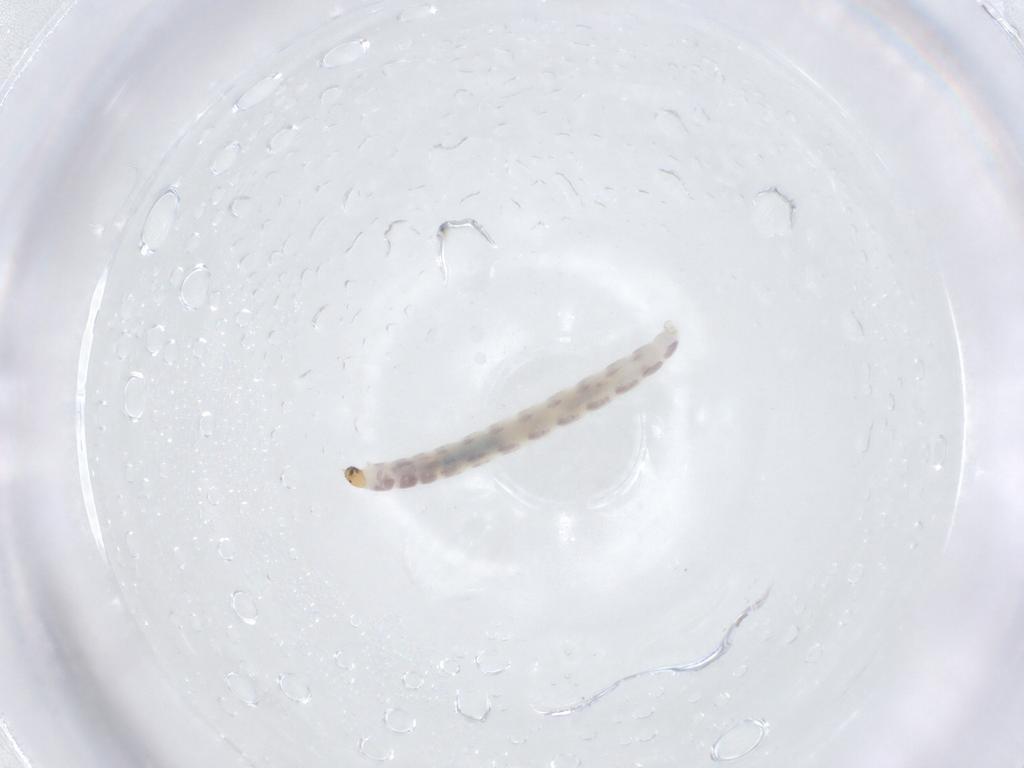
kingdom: Animalia
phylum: Arthropoda
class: Insecta
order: Diptera
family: Chironomidae
